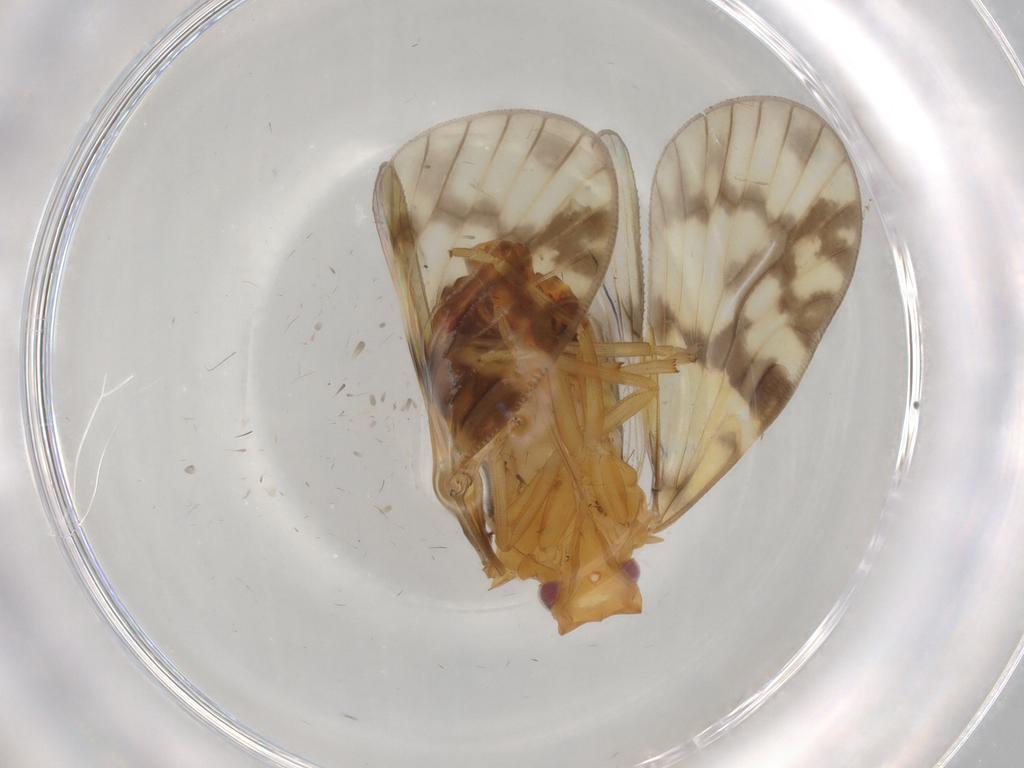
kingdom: Animalia
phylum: Arthropoda
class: Insecta
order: Hemiptera
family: Cixiidae
